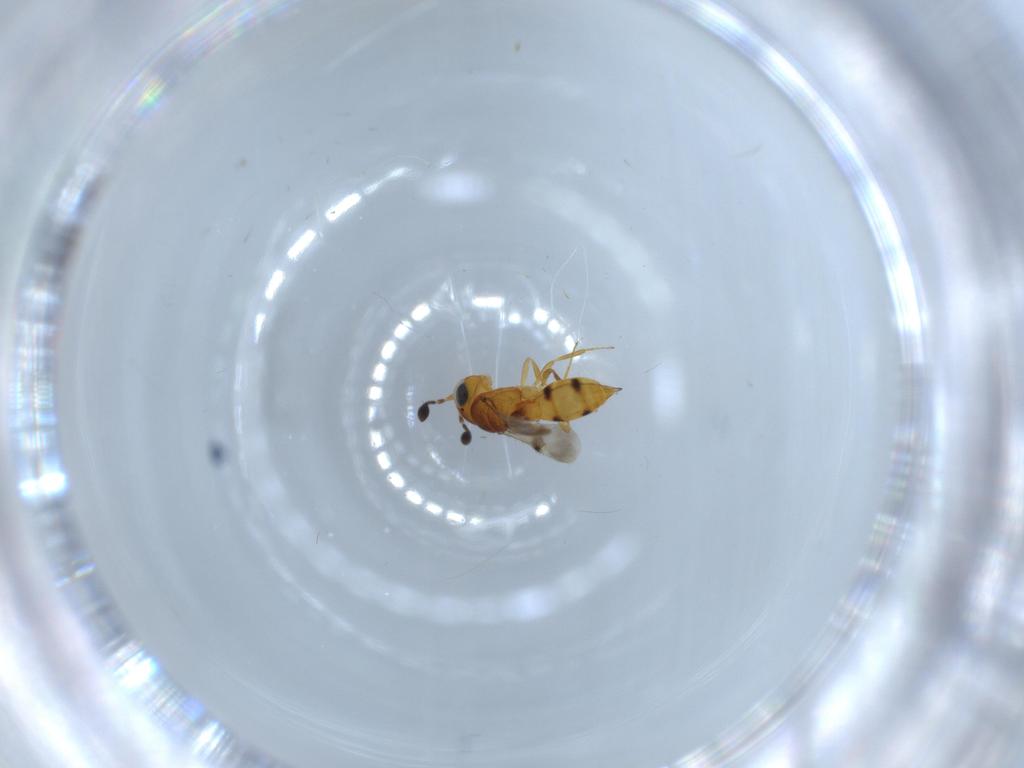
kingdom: Animalia
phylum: Arthropoda
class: Insecta
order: Hymenoptera
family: Scelionidae
